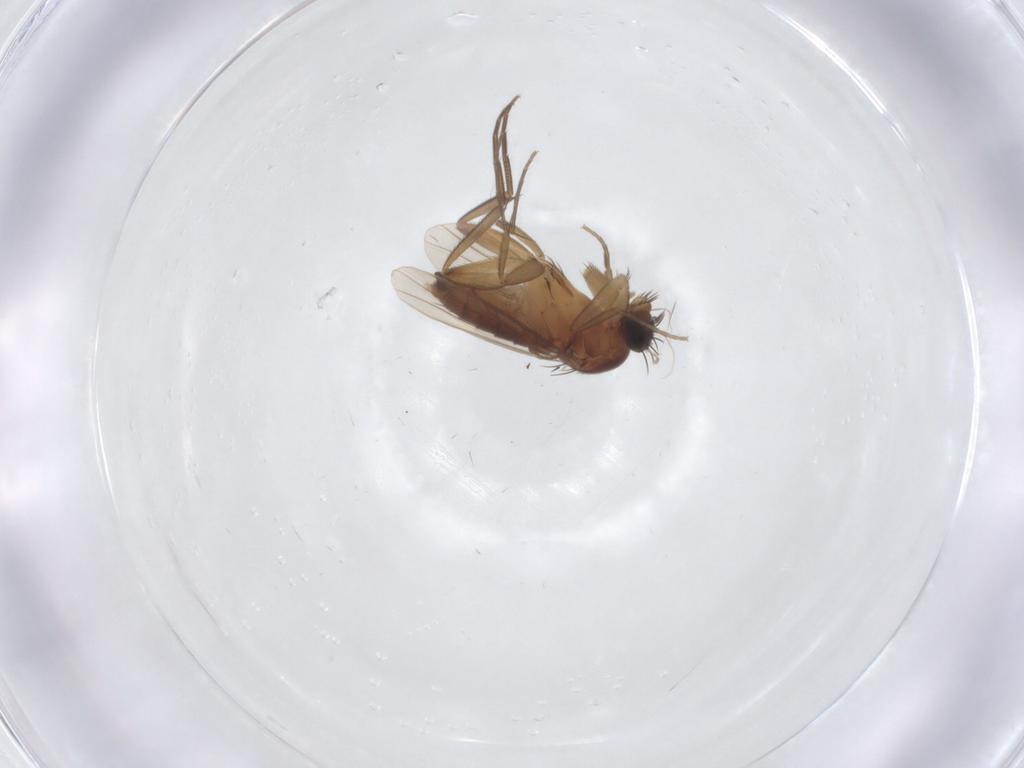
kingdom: Animalia
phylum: Arthropoda
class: Insecta
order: Diptera
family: Phoridae
